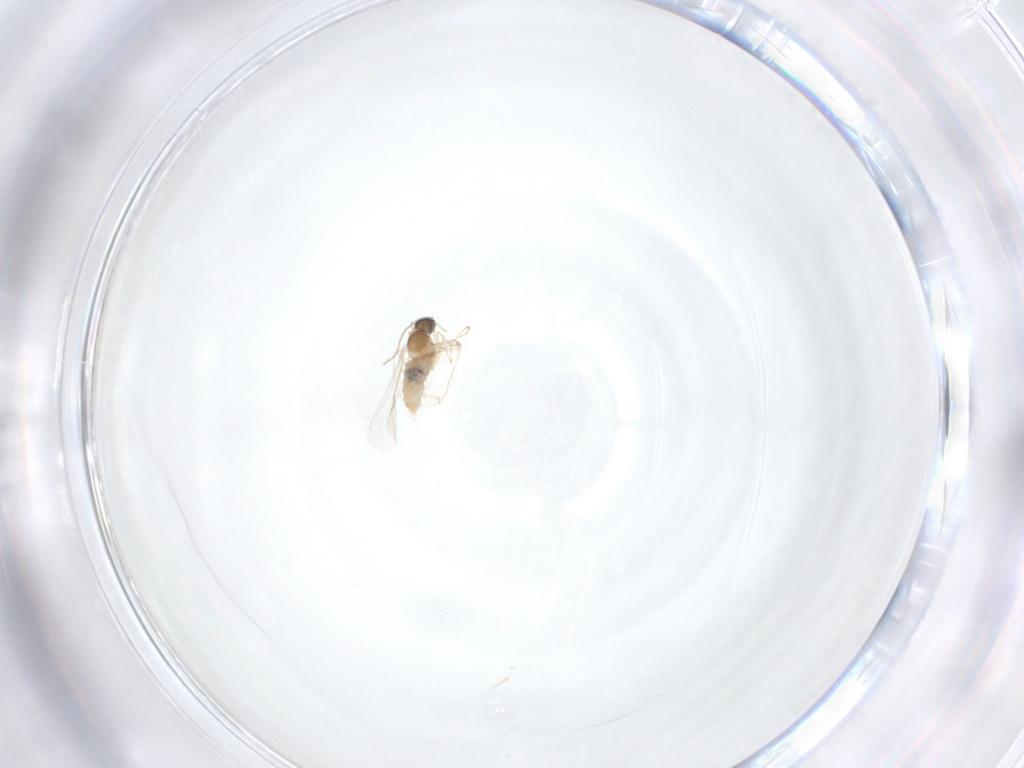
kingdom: Animalia
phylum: Arthropoda
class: Insecta
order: Diptera
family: Cecidomyiidae
